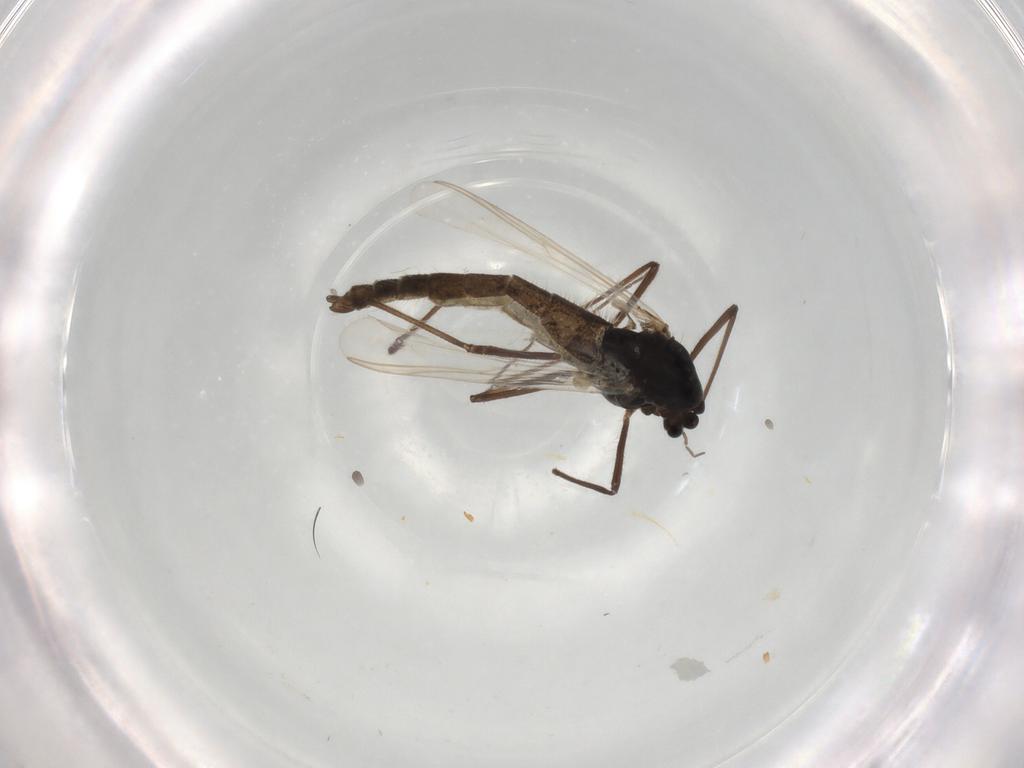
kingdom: Animalia
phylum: Arthropoda
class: Insecta
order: Diptera
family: Chironomidae
